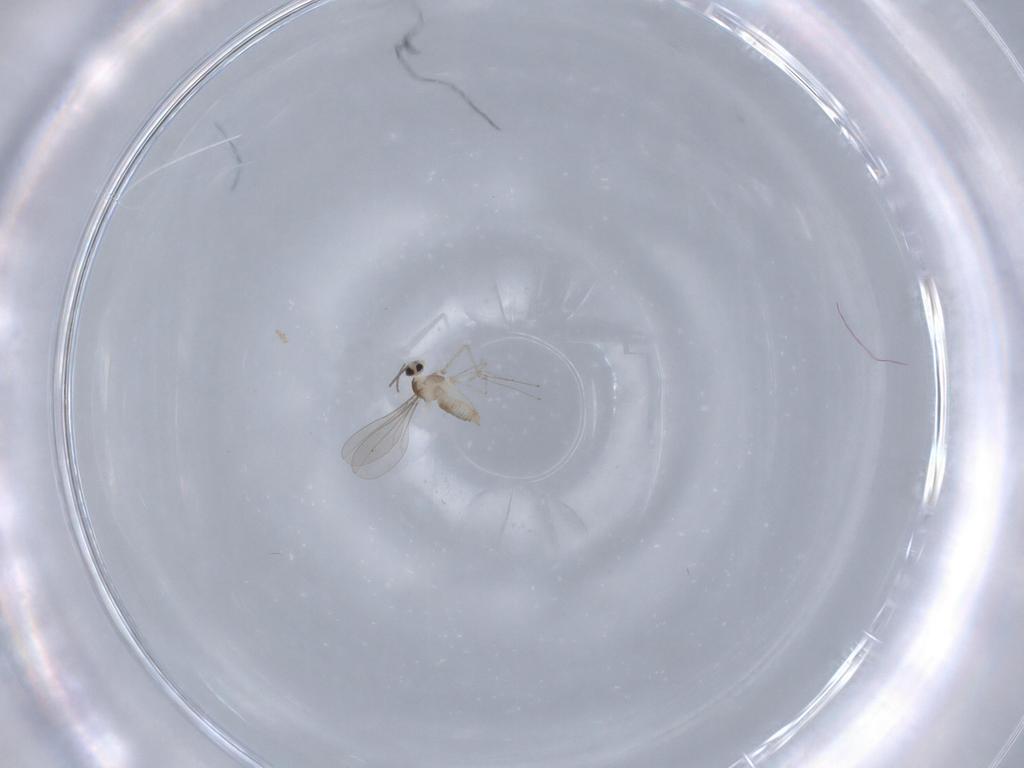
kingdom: Animalia
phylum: Arthropoda
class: Insecta
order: Diptera
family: Cecidomyiidae
